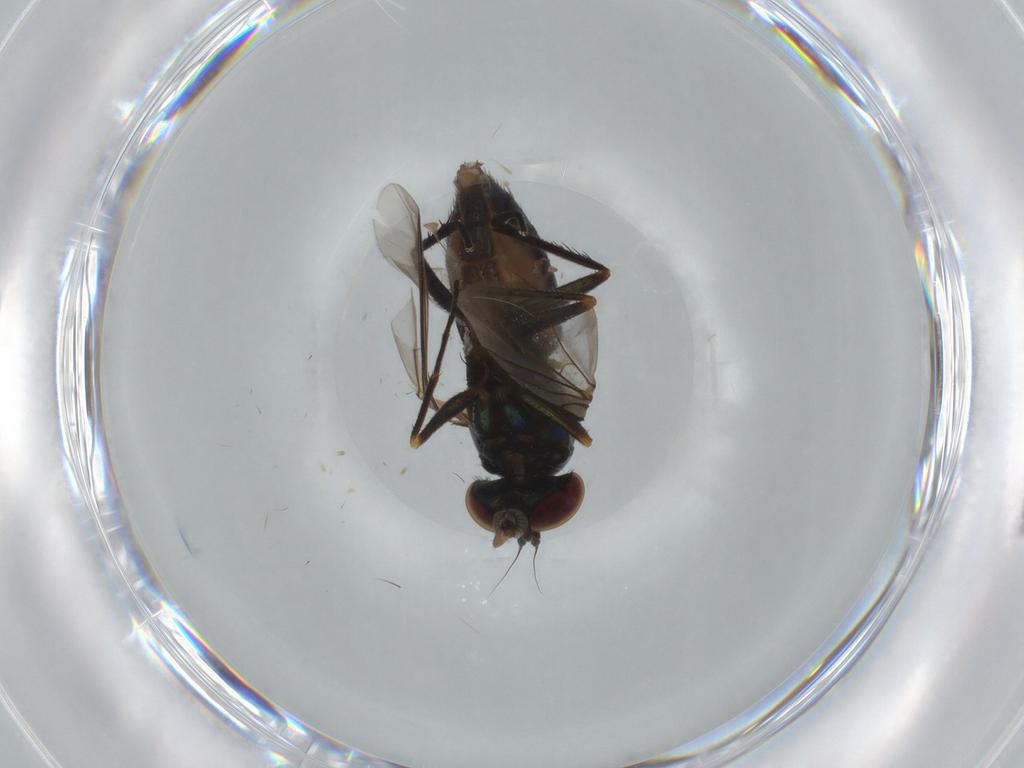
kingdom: Animalia
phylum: Arthropoda
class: Insecta
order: Diptera
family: Dolichopodidae
